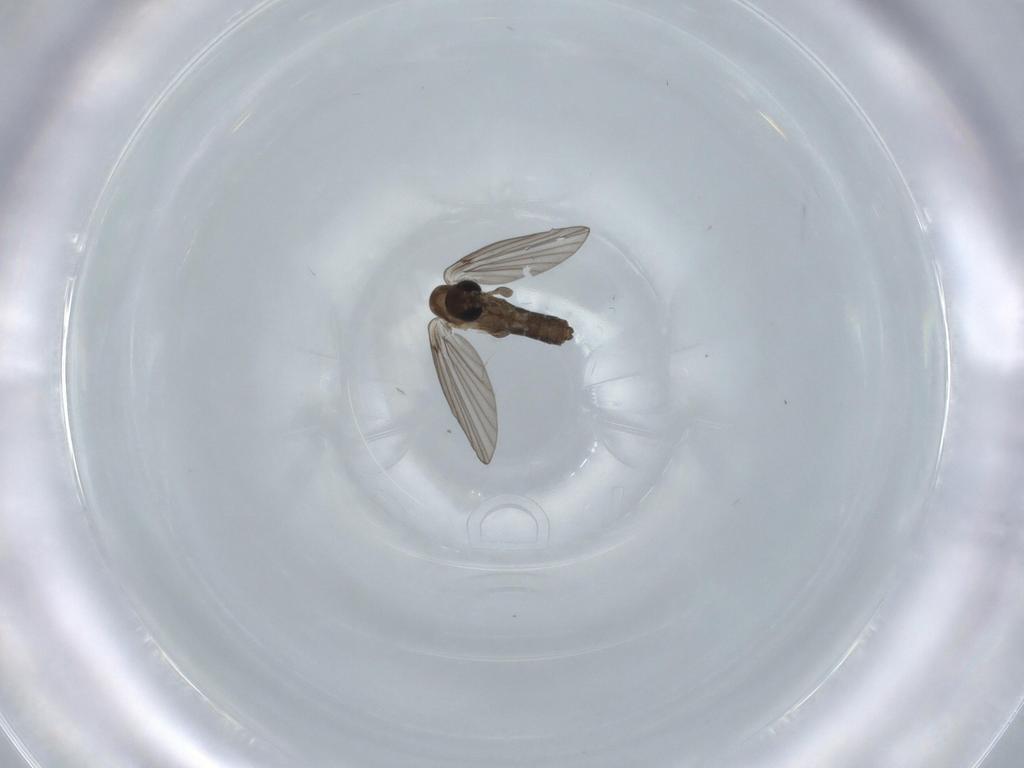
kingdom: Animalia
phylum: Arthropoda
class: Insecta
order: Diptera
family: Psychodidae
